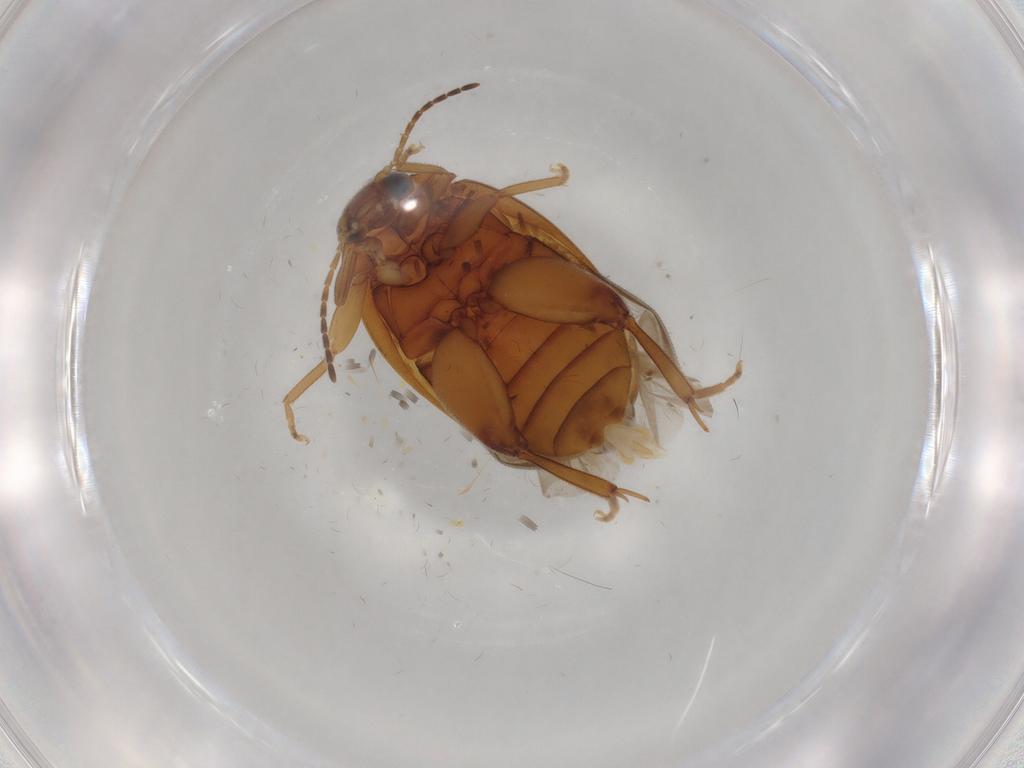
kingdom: Animalia
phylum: Arthropoda
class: Insecta
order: Coleoptera
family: Scirtidae
